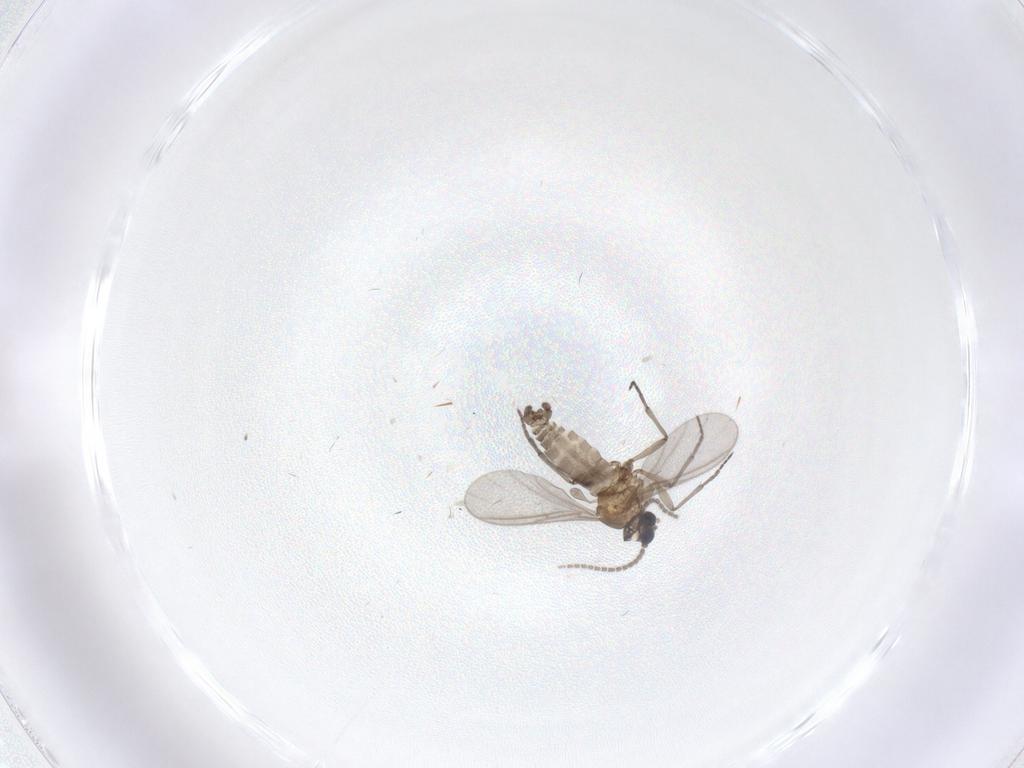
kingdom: Animalia
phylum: Arthropoda
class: Insecta
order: Diptera
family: Sciaridae
